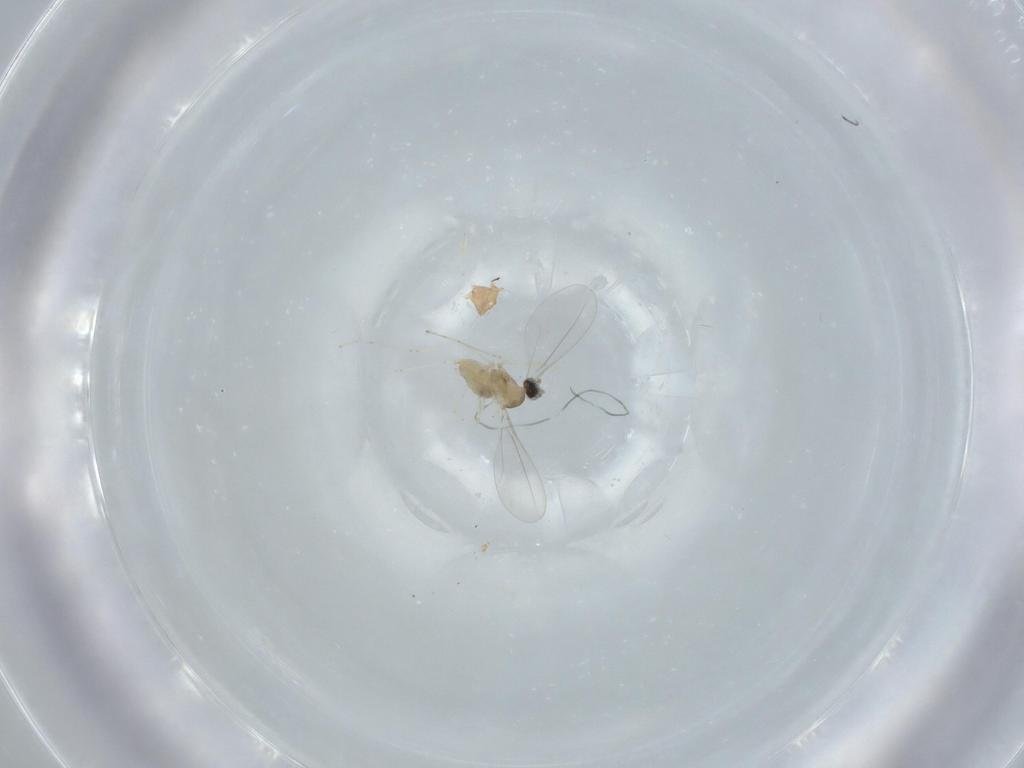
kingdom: Animalia
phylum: Arthropoda
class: Insecta
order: Diptera
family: Cecidomyiidae
